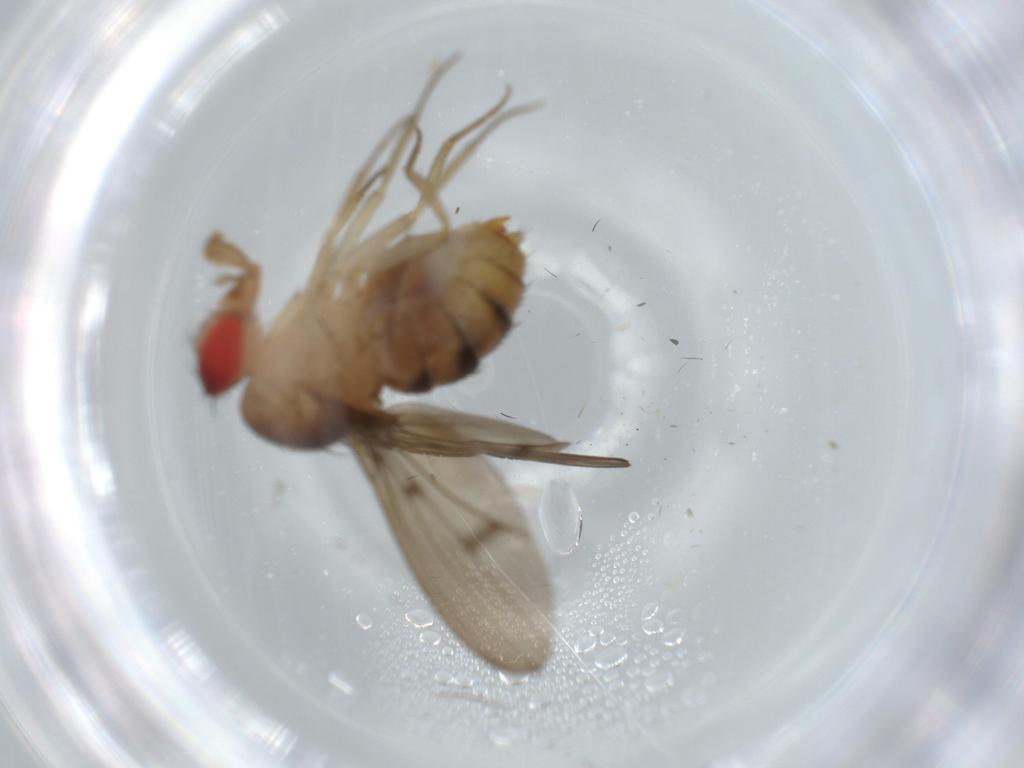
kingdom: Animalia
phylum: Arthropoda
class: Insecta
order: Diptera
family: Drosophilidae
